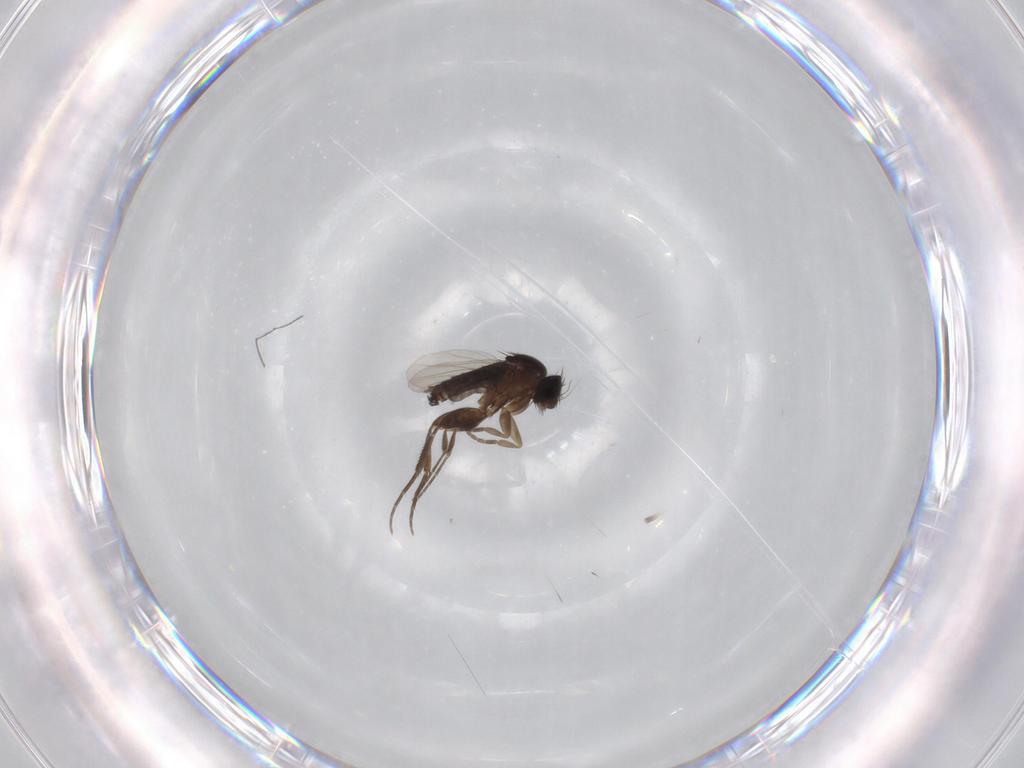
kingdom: Animalia
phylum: Arthropoda
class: Insecta
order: Diptera
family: Phoridae
